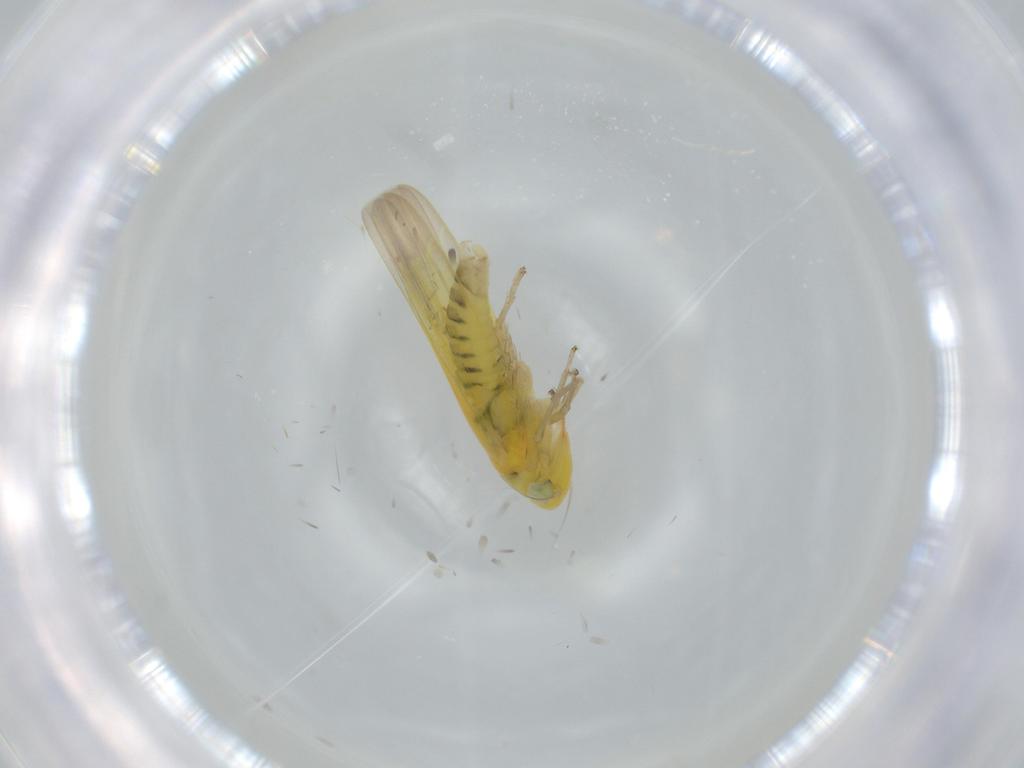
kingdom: Animalia
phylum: Arthropoda
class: Insecta
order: Hemiptera
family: Cicadellidae
